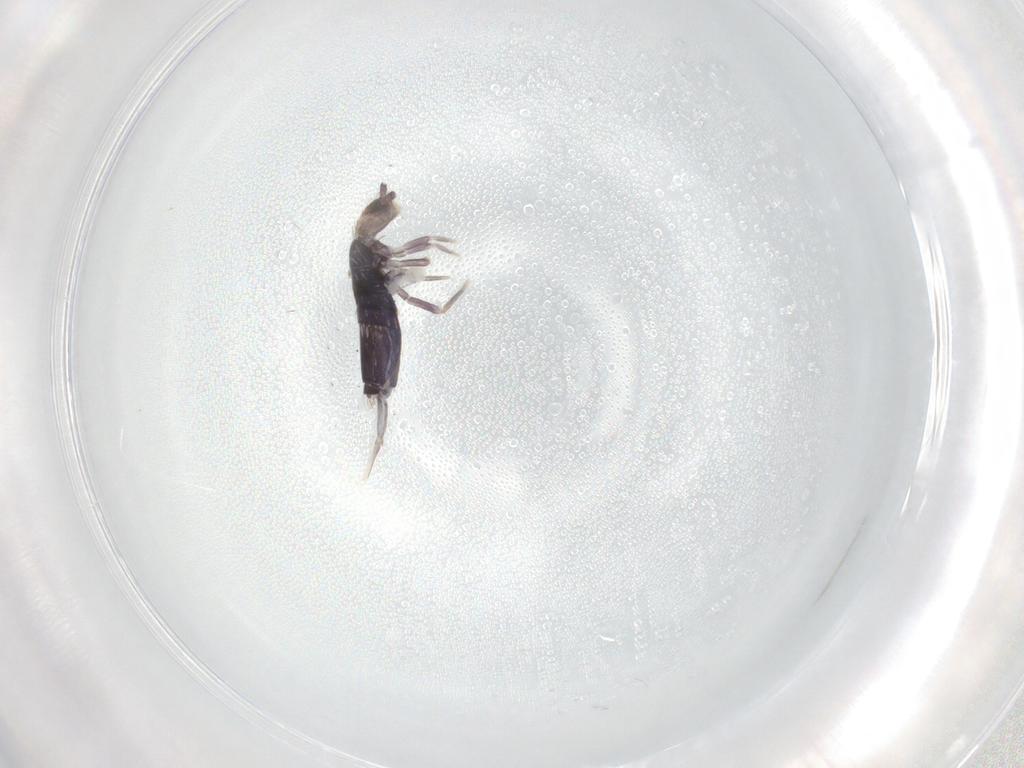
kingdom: Animalia
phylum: Arthropoda
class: Collembola
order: Entomobryomorpha
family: Entomobryidae
